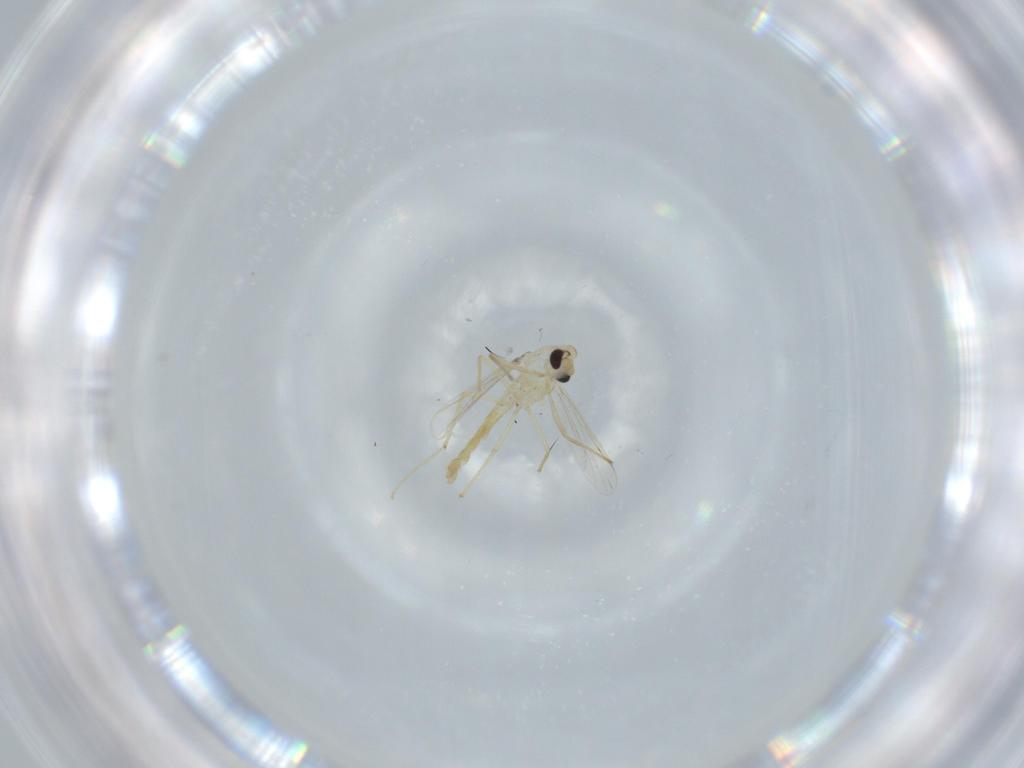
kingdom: Animalia
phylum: Arthropoda
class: Insecta
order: Diptera
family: Chironomidae
